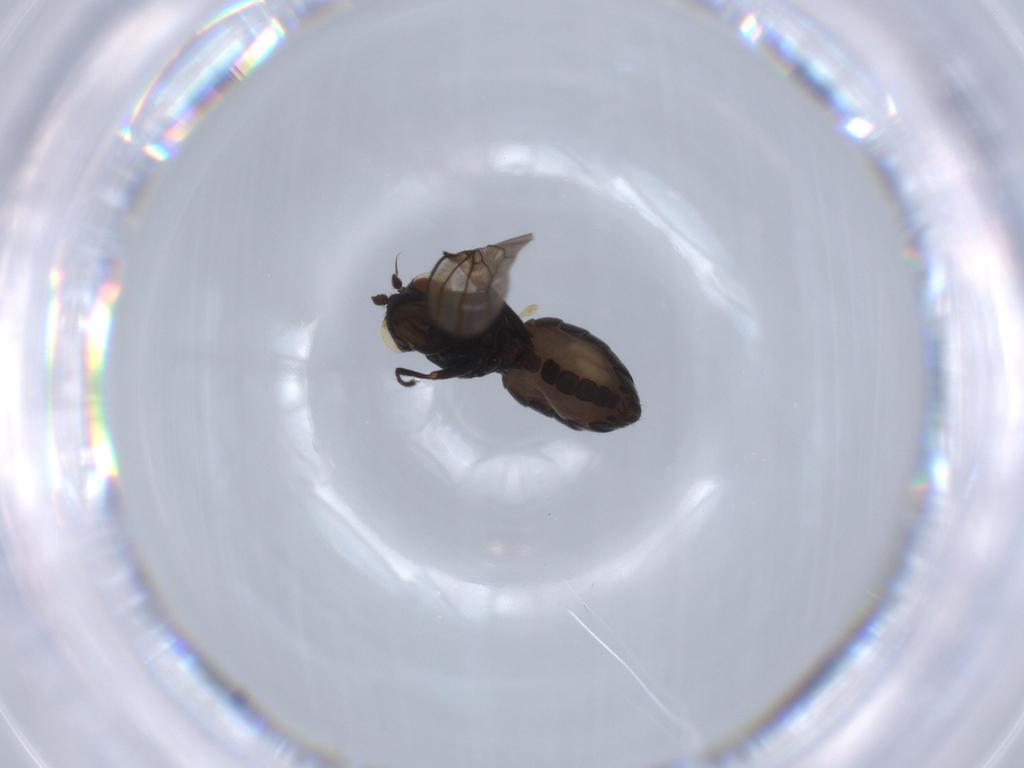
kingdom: Animalia
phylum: Arthropoda
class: Insecta
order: Diptera
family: Ephydridae
